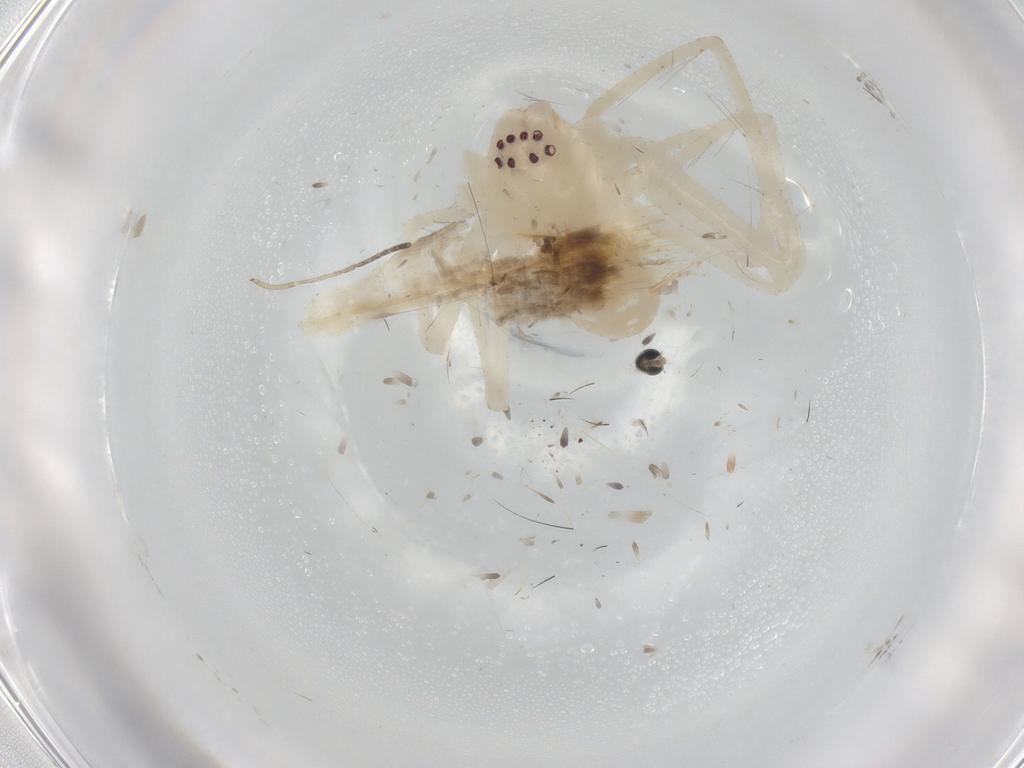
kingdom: Animalia
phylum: Arthropoda
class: Arachnida
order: Araneae
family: Sparassidae
